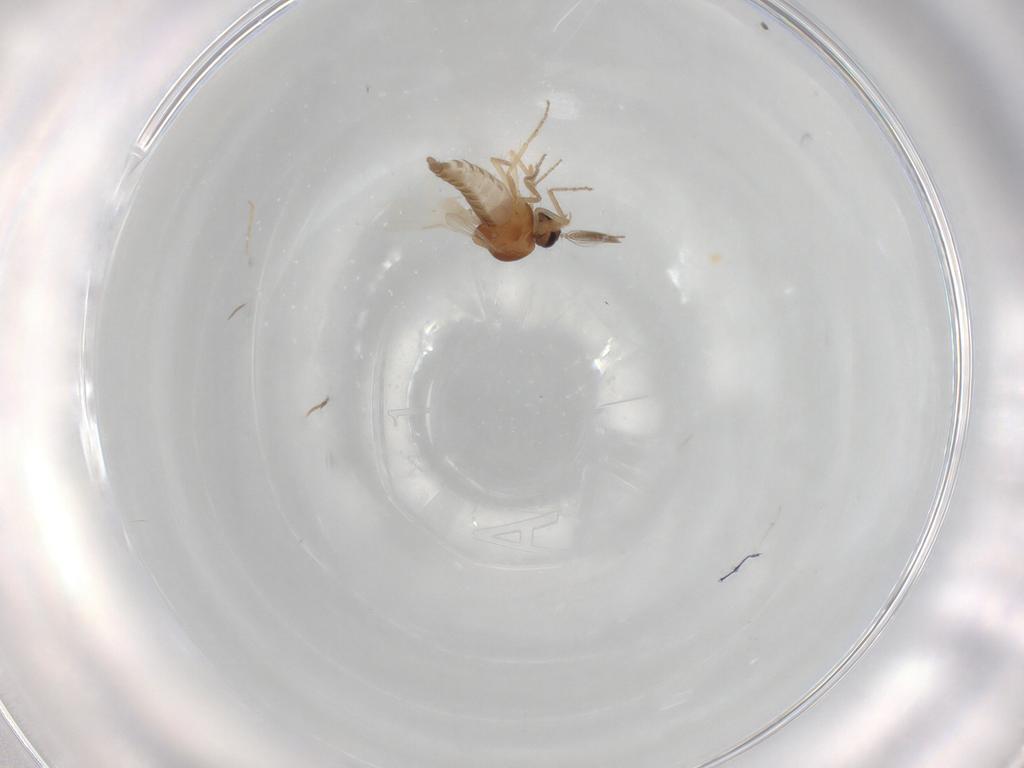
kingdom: Animalia
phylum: Arthropoda
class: Insecta
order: Diptera
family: Ceratopogonidae
